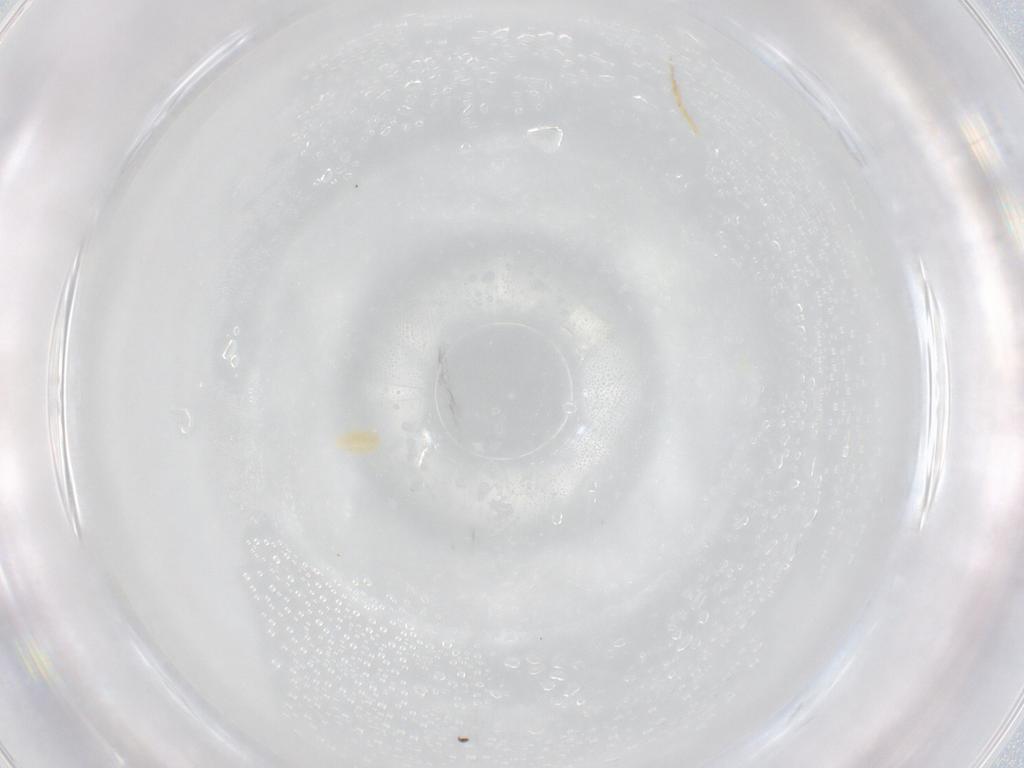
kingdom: Animalia
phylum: Arthropoda
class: Arachnida
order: Trombidiformes
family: Eupodidae
